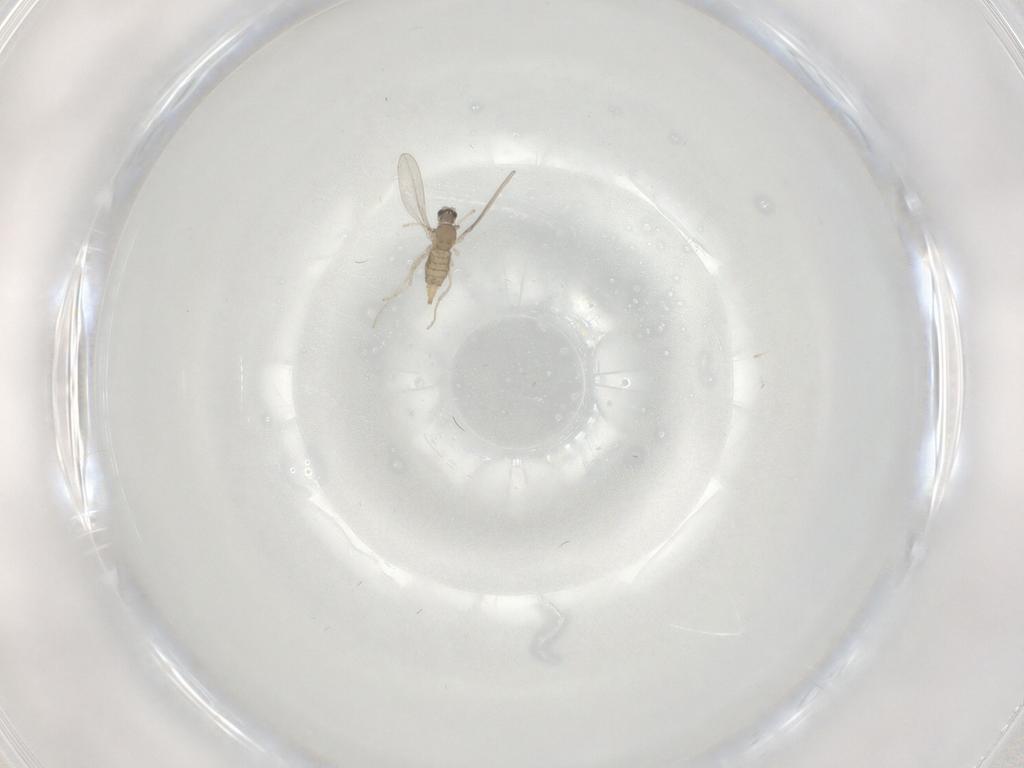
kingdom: Animalia
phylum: Arthropoda
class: Insecta
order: Diptera
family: Cecidomyiidae
